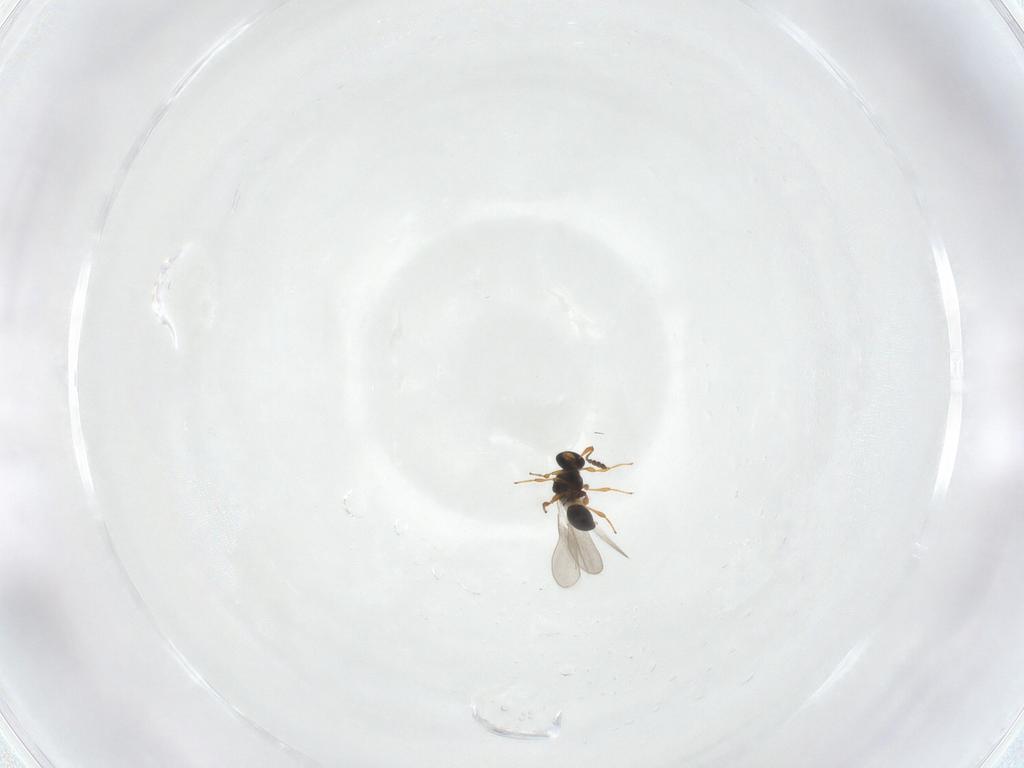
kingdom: Animalia
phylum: Arthropoda
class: Insecta
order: Hymenoptera
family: Platygastridae
